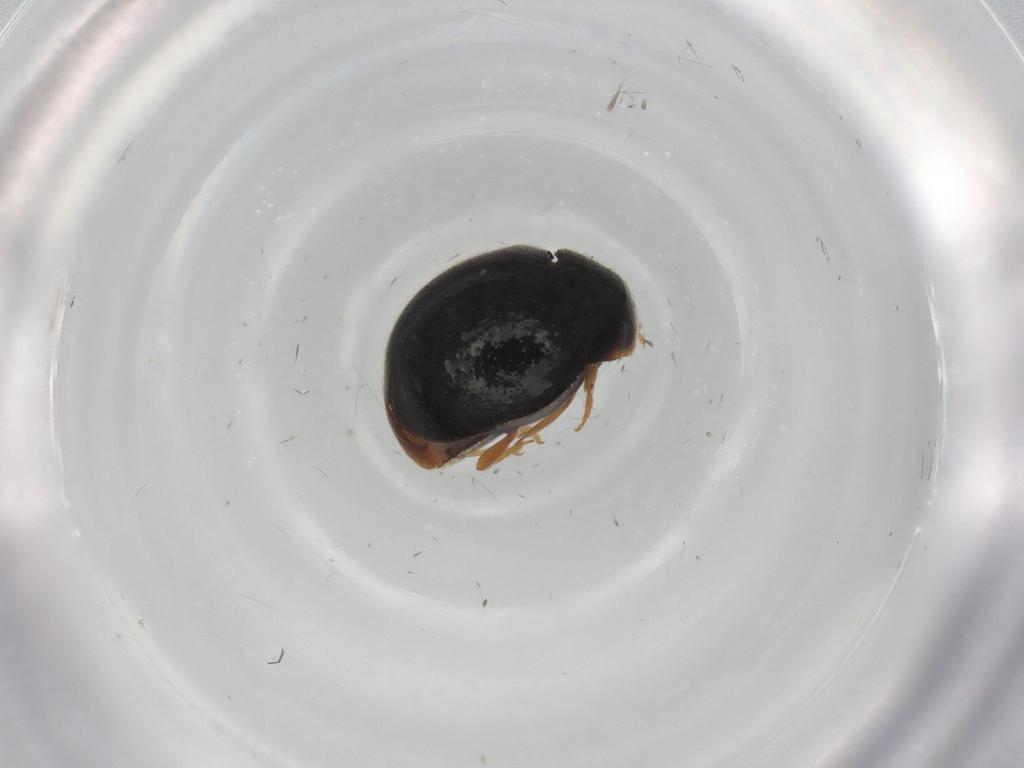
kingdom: Animalia
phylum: Arthropoda
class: Insecta
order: Coleoptera
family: Coccinellidae
